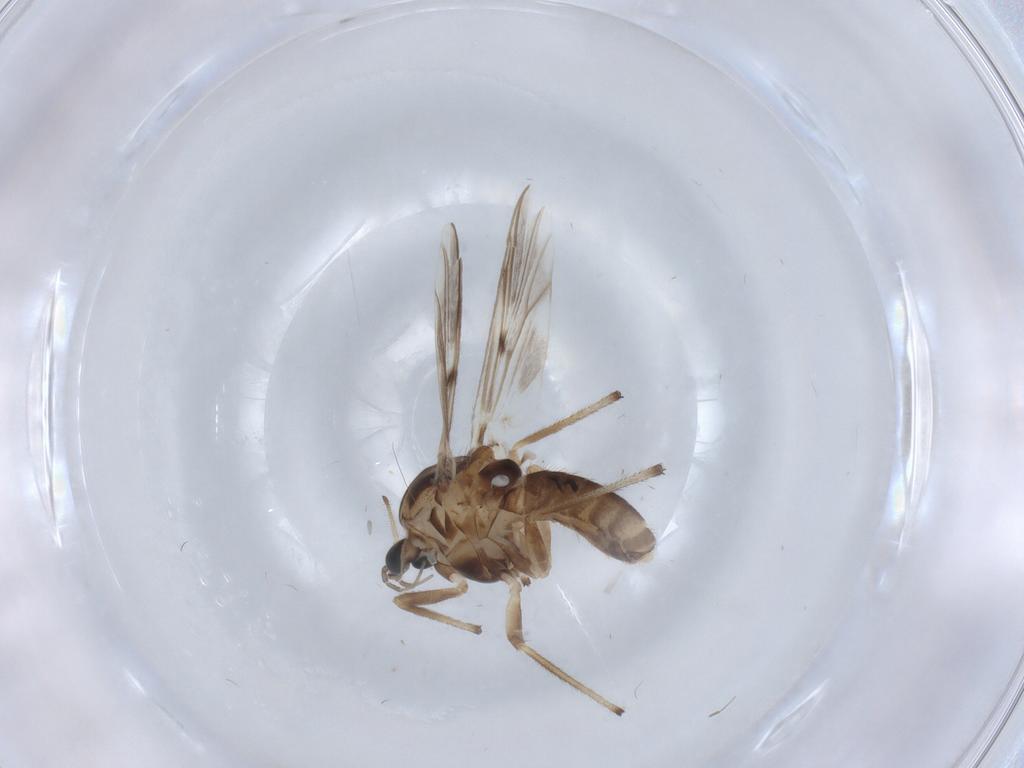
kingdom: Animalia
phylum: Arthropoda
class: Insecta
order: Diptera
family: Chironomidae
